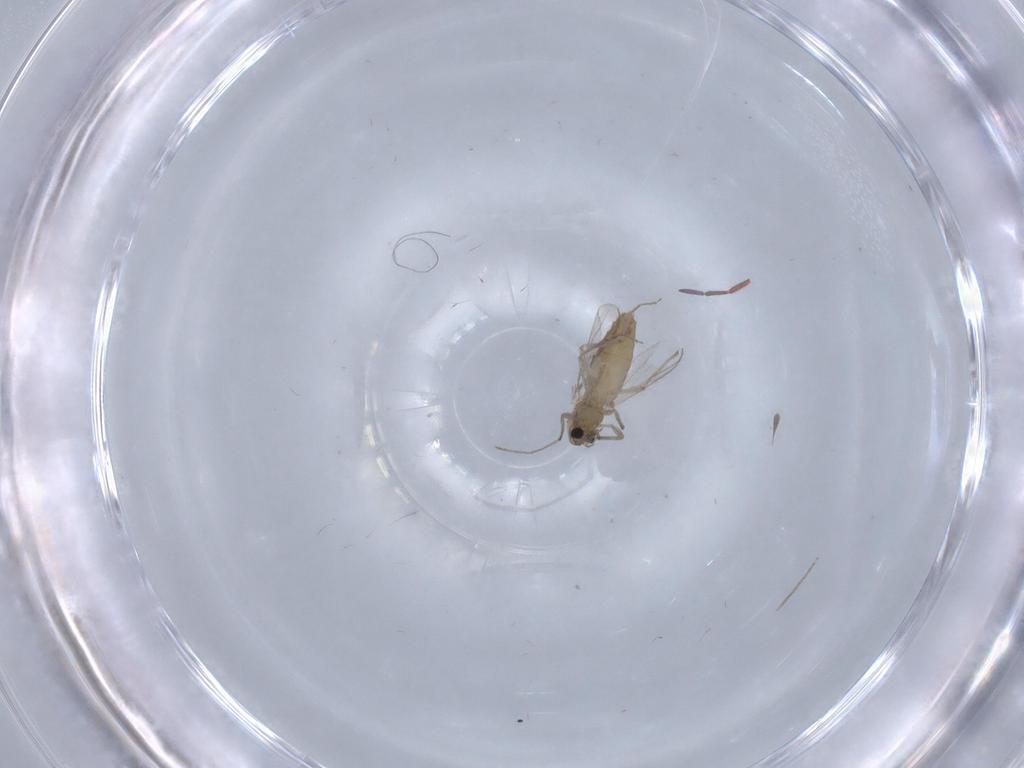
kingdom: Animalia
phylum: Arthropoda
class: Insecta
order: Diptera
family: Chironomidae
